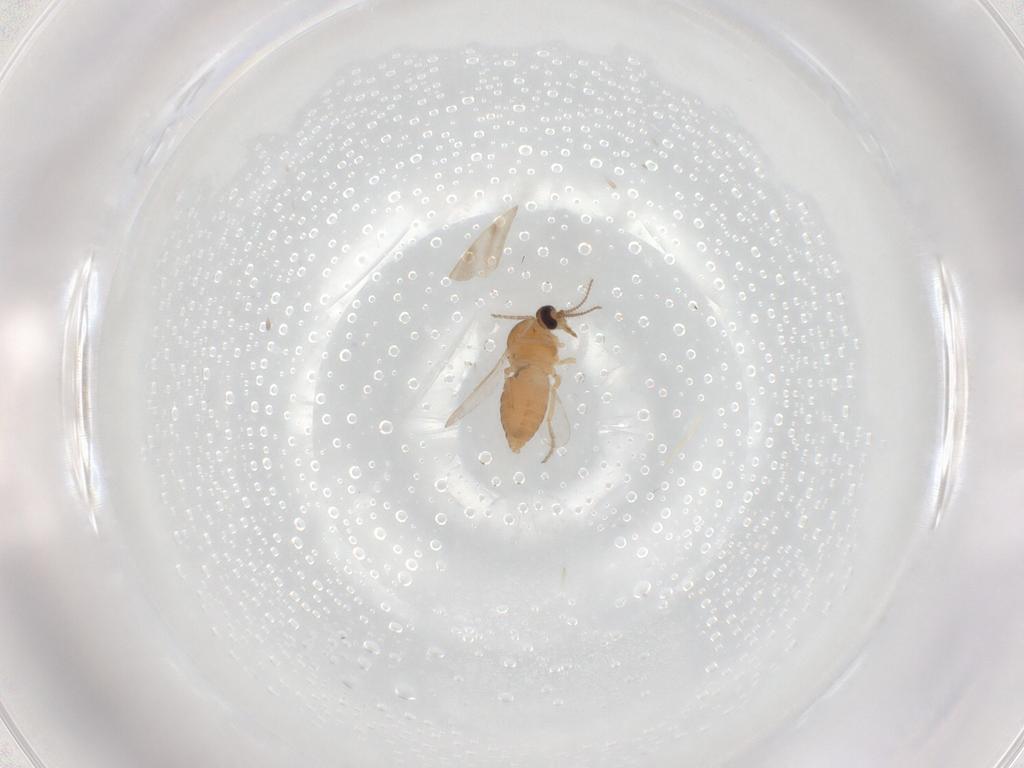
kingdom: Animalia
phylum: Arthropoda
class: Insecta
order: Diptera
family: Ceratopogonidae
